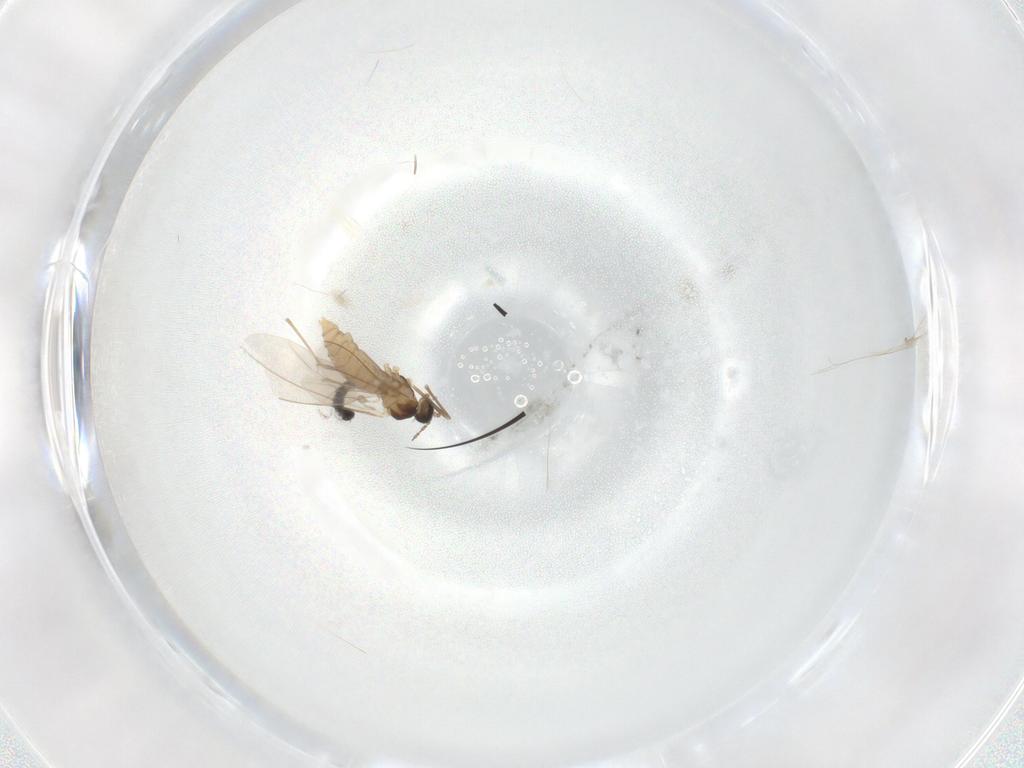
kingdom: Animalia
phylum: Arthropoda
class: Insecta
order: Diptera
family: Cecidomyiidae
